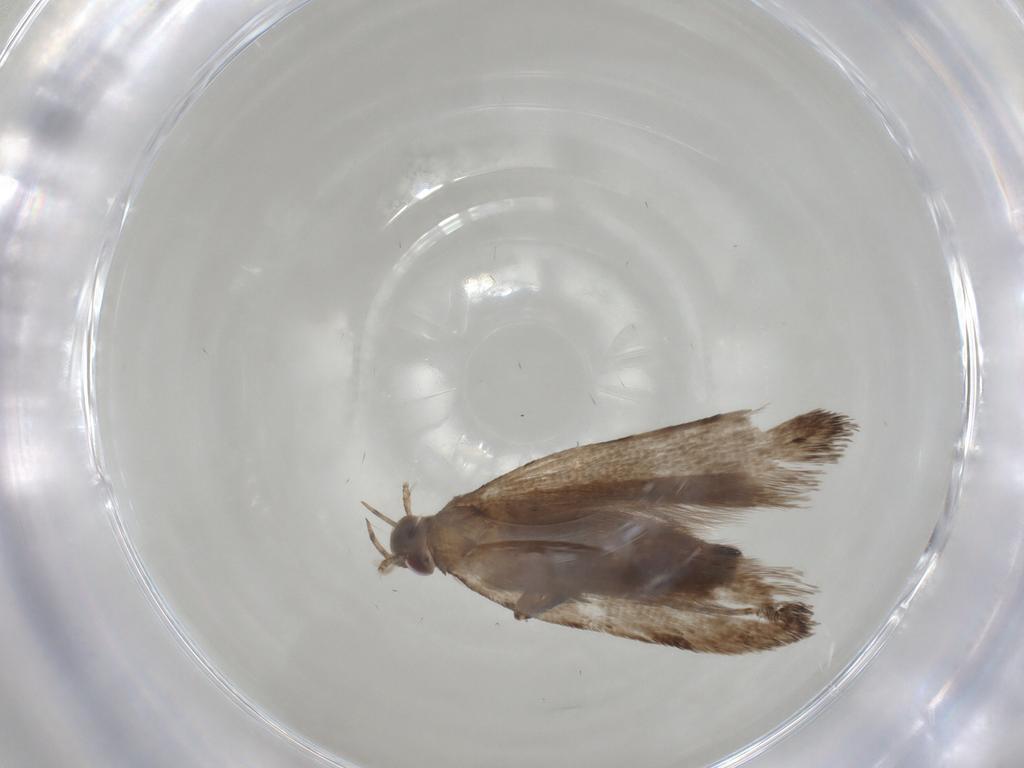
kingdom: Animalia
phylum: Arthropoda
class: Insecta
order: Lepidoptera
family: Gelechiidae
